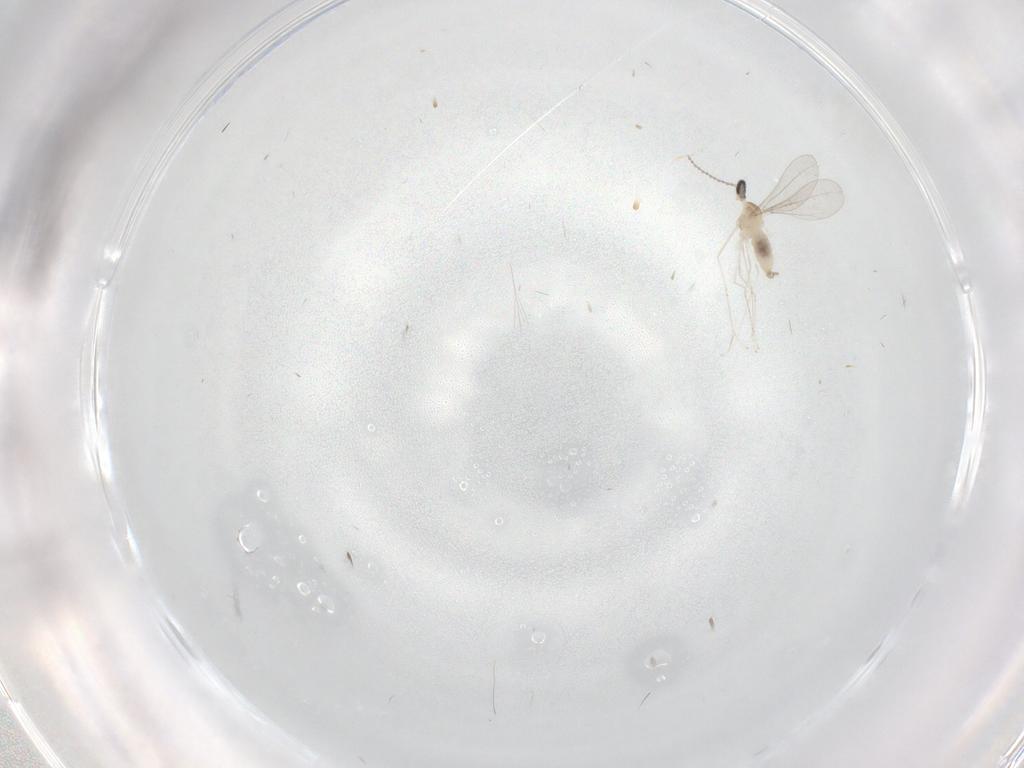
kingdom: Animalia
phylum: Arthropoda
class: Insecta
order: Diptera
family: Cecidomyiidae
